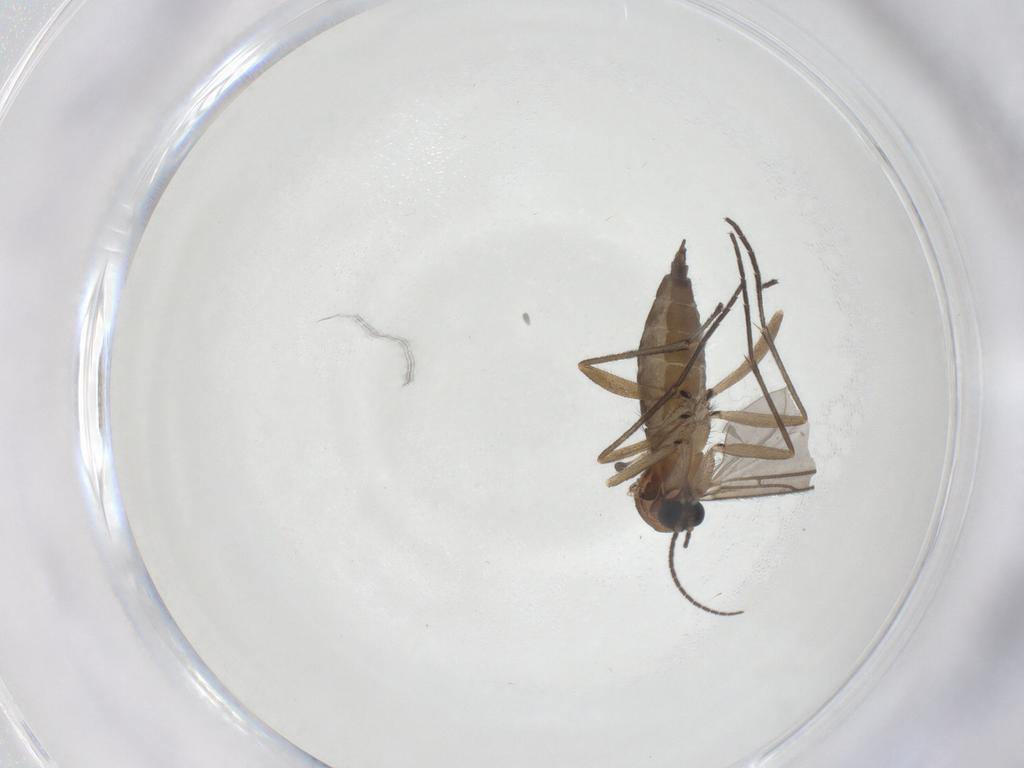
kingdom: Animalia
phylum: Arthropoda
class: Insecta
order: Diptera
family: Sciaridae
